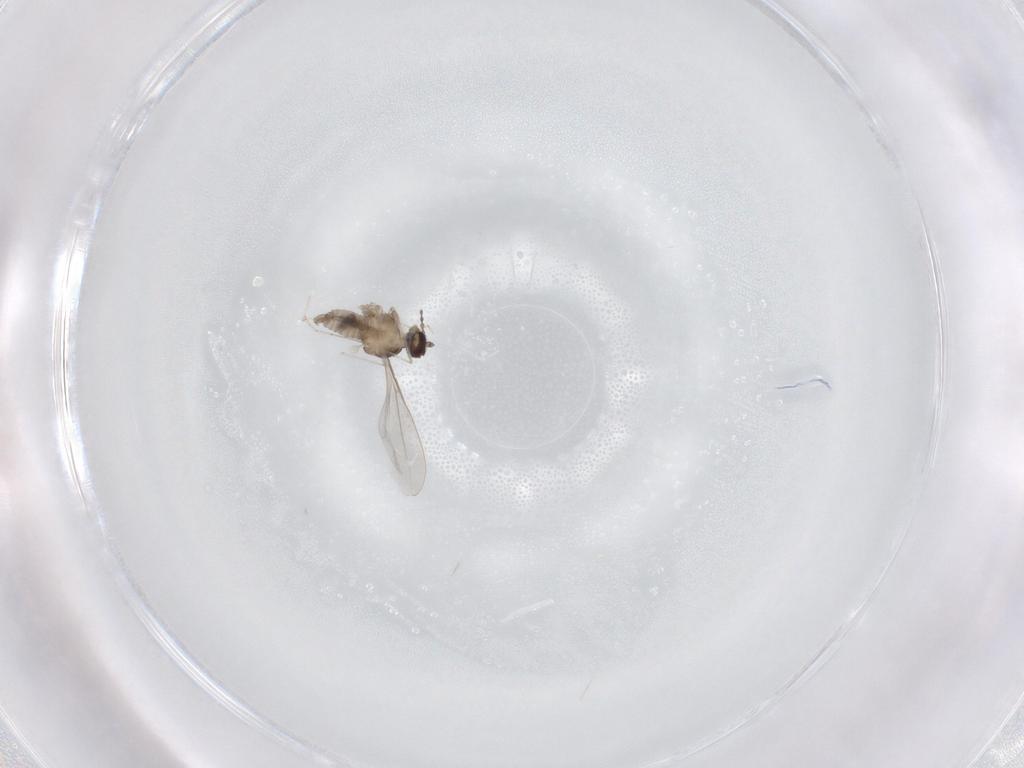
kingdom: Animalia
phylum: Arthropoda
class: Insecta
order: Diptera
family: Cecidomyiidae
